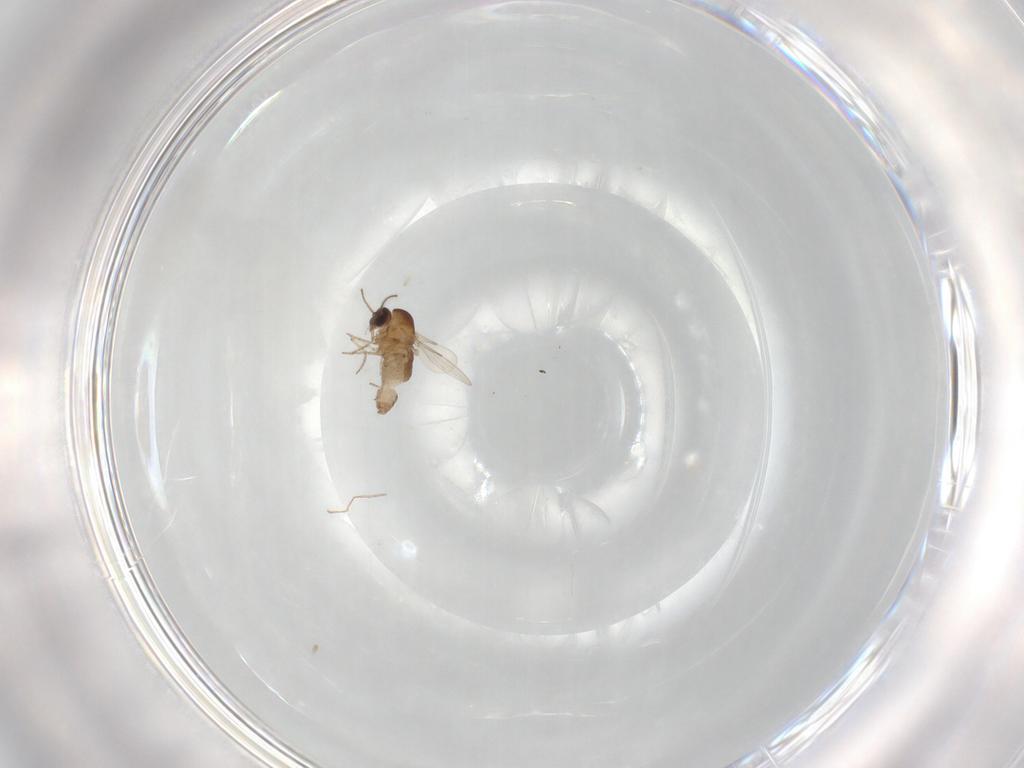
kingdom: Animalia
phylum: Arthropoda
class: Insecta
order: Diptera
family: Ceratopogonidae
